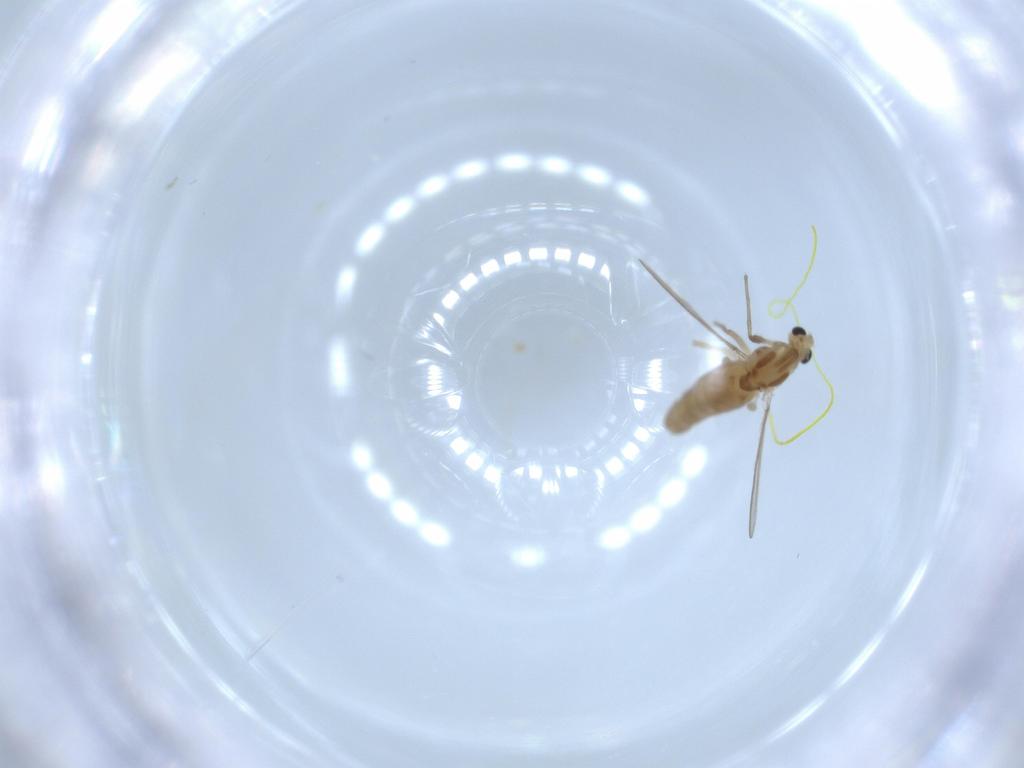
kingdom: Animalia
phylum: Arthropoda
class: Insecta
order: Diptera
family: Chironomidae
